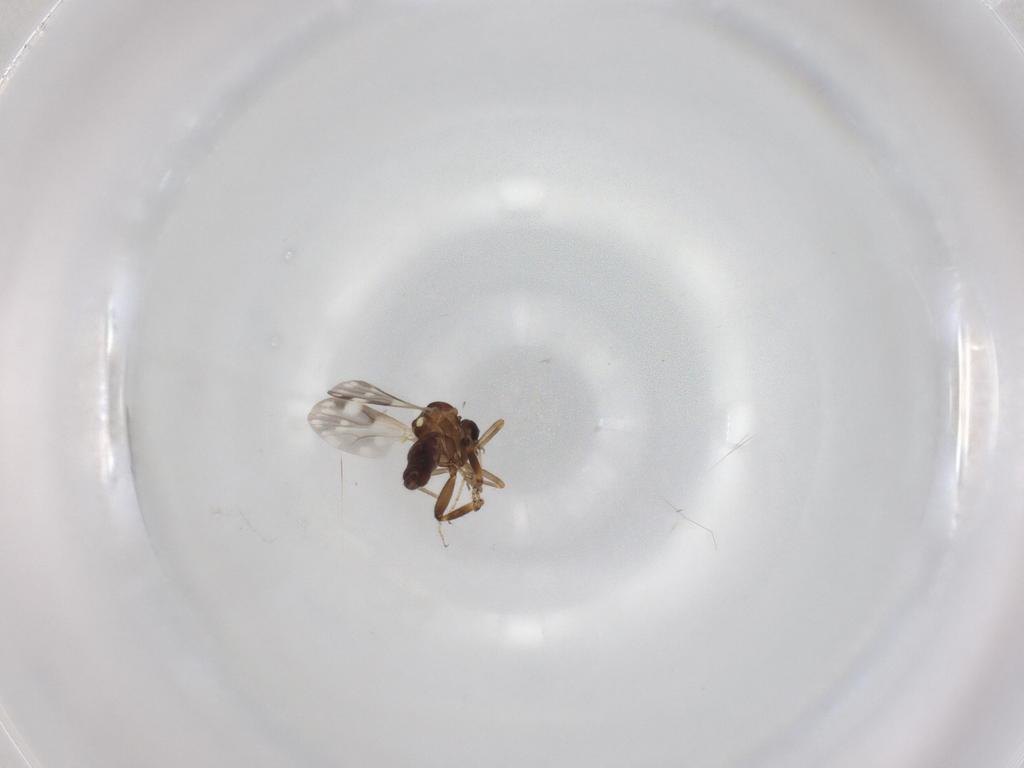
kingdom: Animalia
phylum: Arthropoda
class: Insecta
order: Diptera
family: Ceratopogonidae
